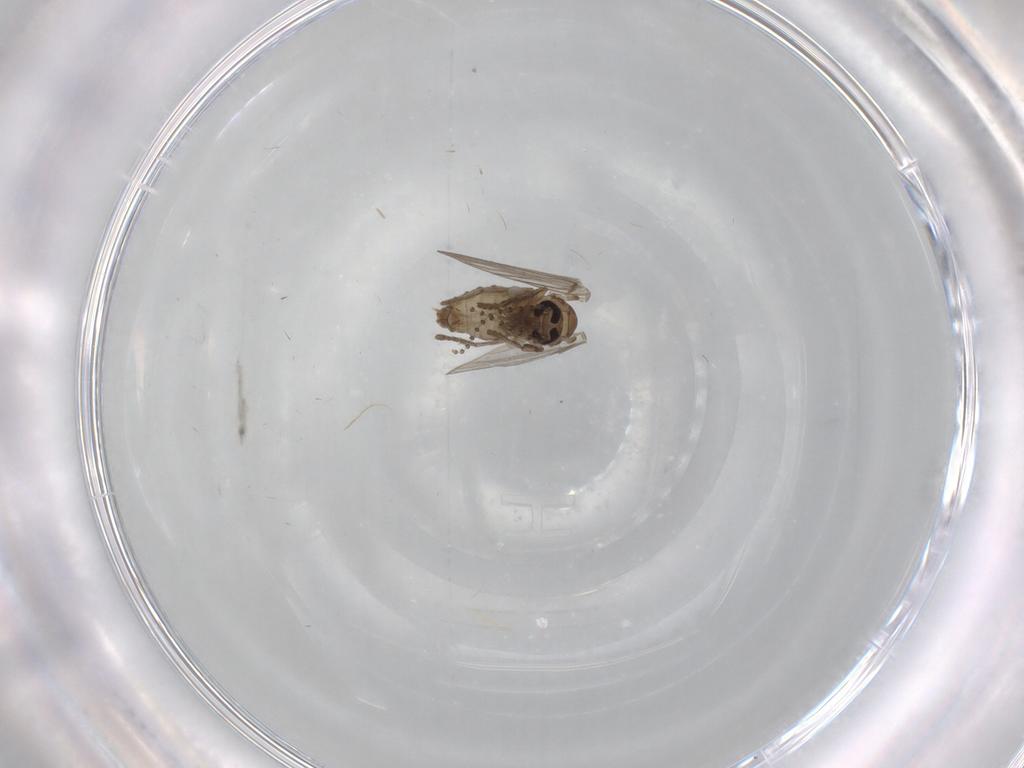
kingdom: Animalia
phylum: Arthropoda
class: Insecta
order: Diptera
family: Psychodidae
